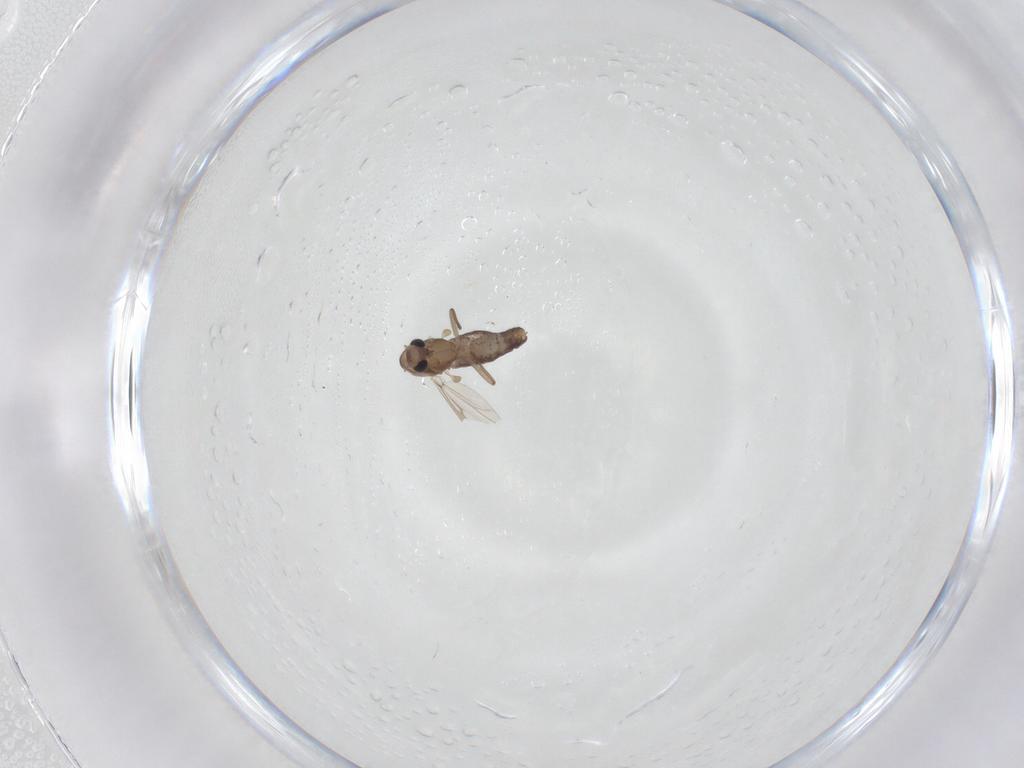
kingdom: Animalia
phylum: Arthropoda
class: Insecta
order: Diptera
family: Chironomidae
